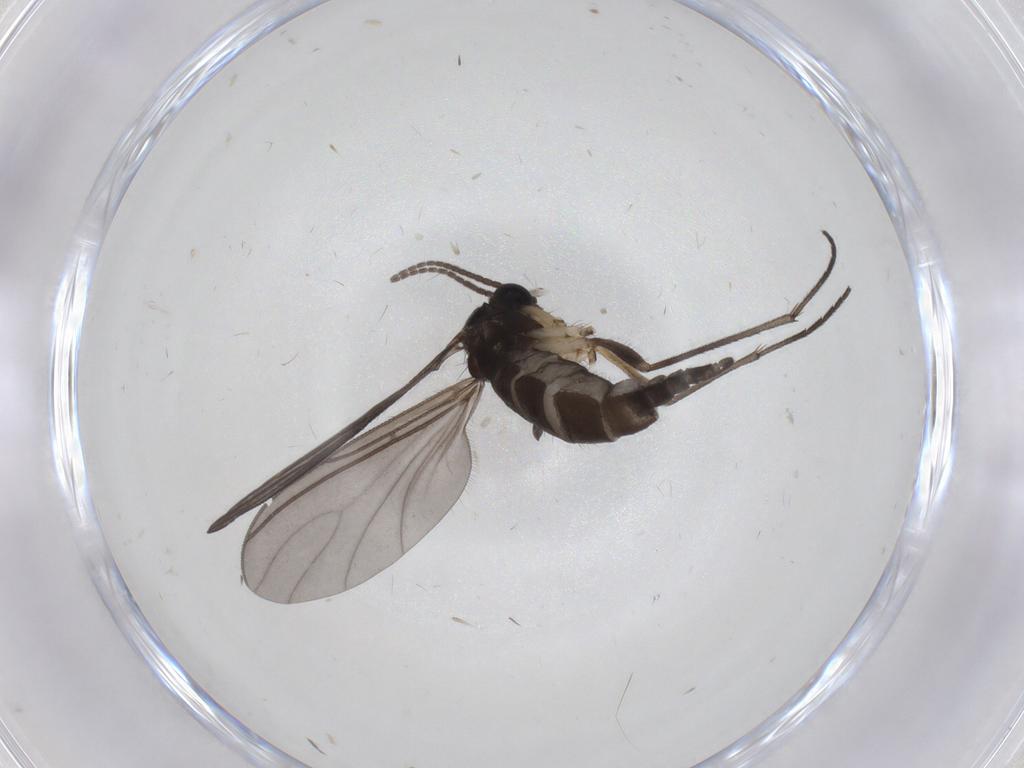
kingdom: Animalia
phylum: Arthropoda
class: Insecta
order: Diptera
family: Sciaridae
